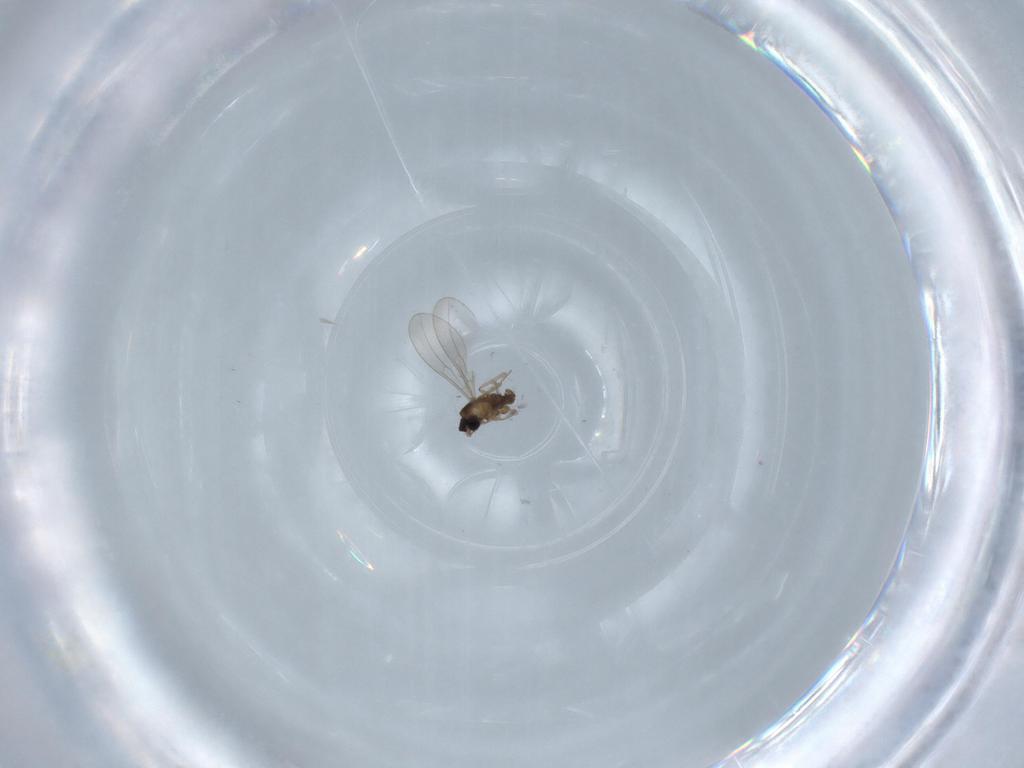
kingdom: Animalia
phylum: Arthropoda
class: Insecta
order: Diptera
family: Cecidomyiidae
